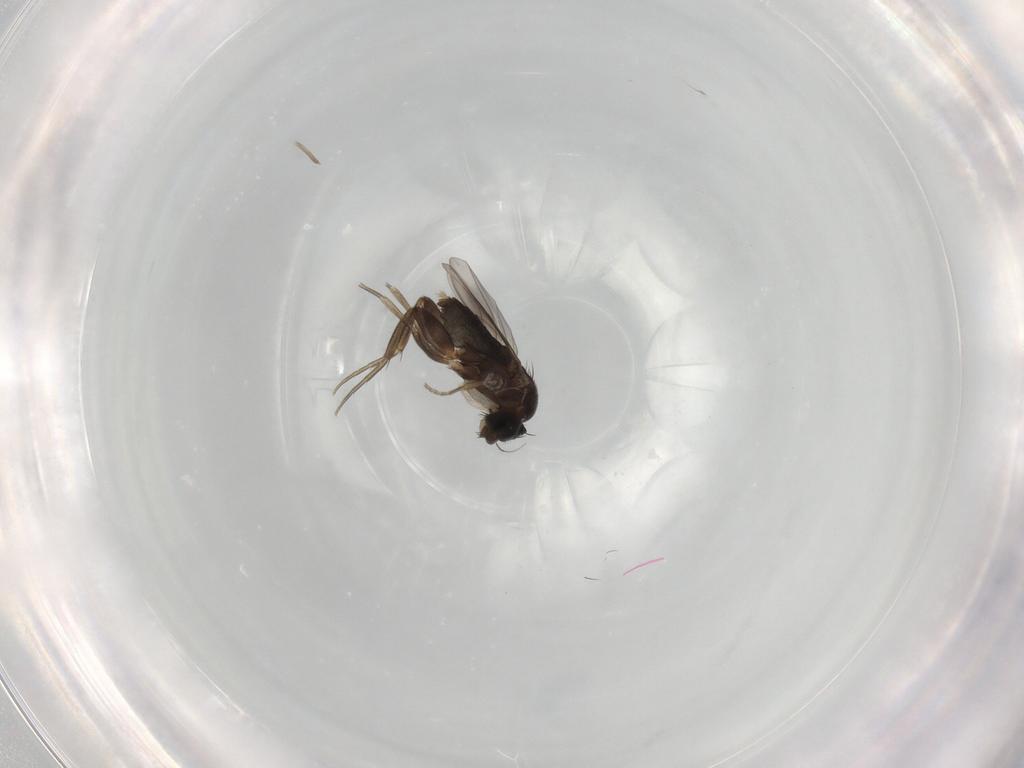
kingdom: Animalia
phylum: Arthropoda
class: Insecta
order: Diptera
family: Phoridae
